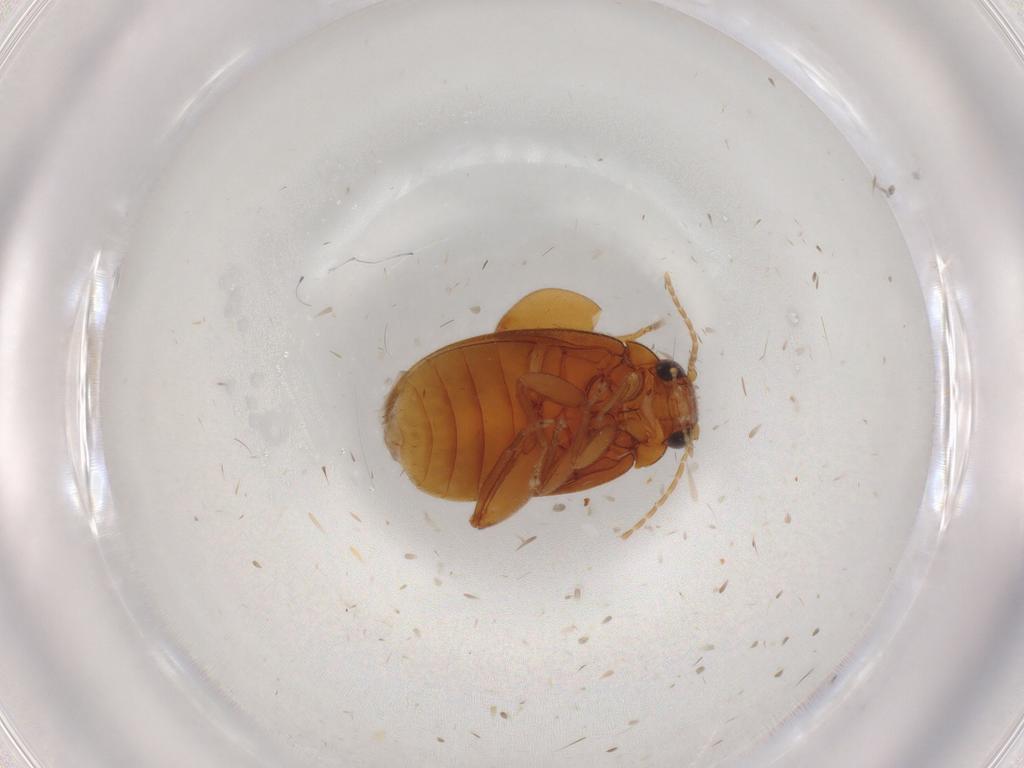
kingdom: Animalia
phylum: Arthropoda
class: Insecta
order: Coleoptera
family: Scirtidae
